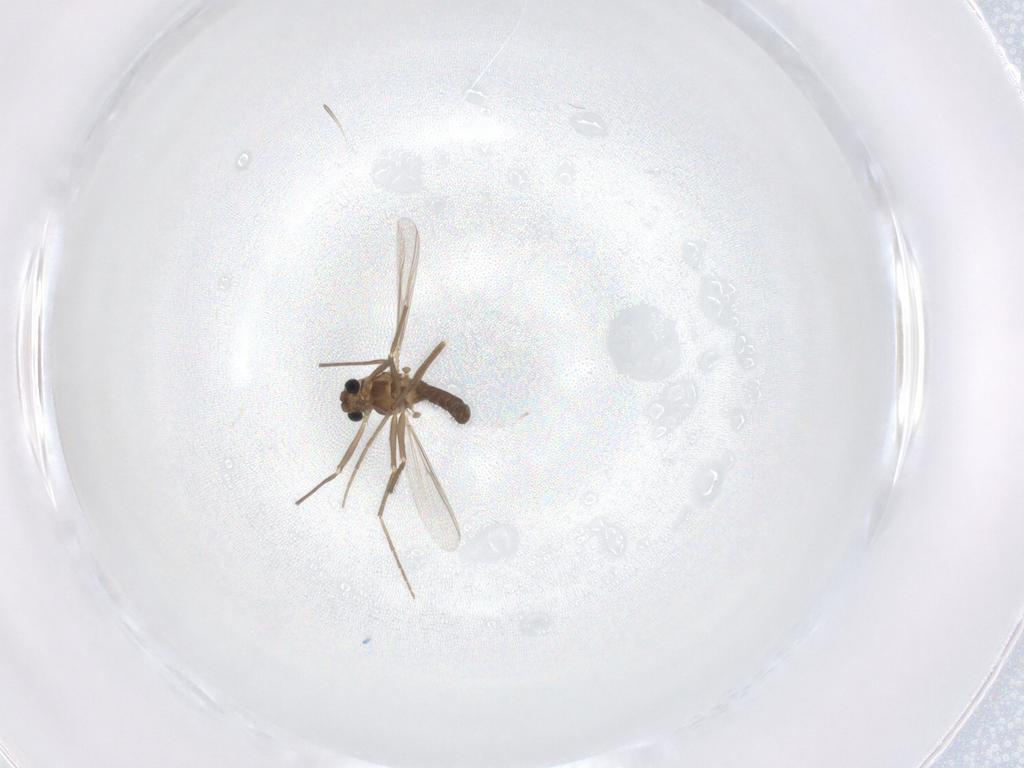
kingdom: Animalia
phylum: Arthropoda
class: Insecta
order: Diptera
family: Chironomidae
